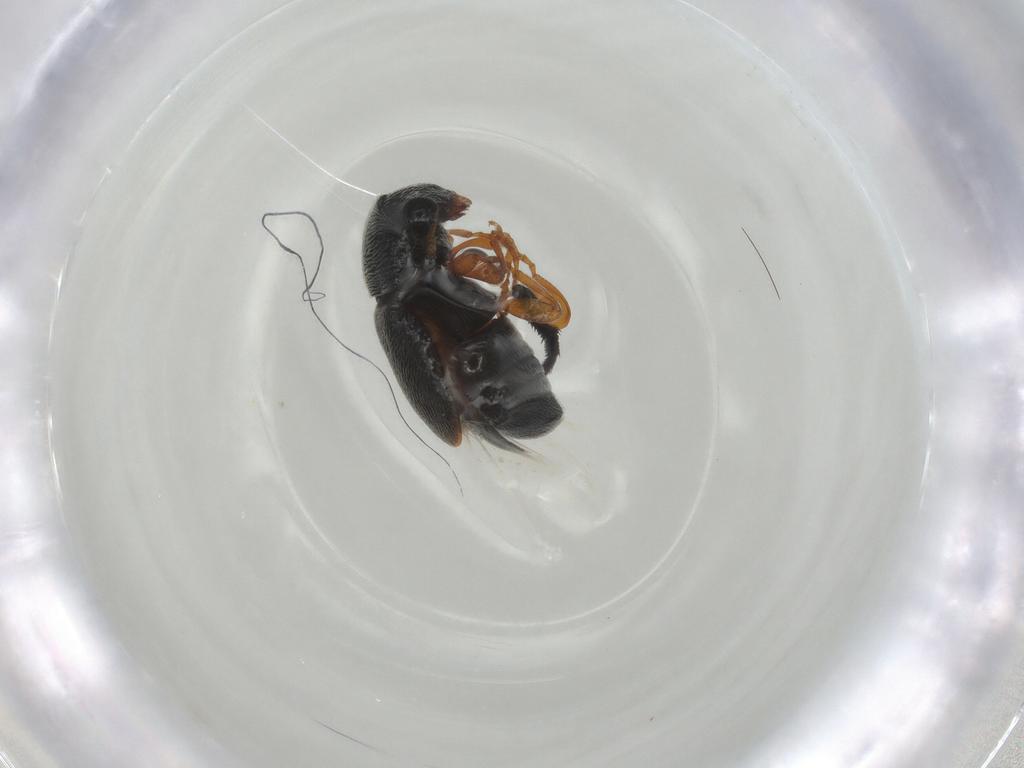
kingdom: Animalia
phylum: Arthropoda
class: Insecta
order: Coleoptera
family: Anthribidae
